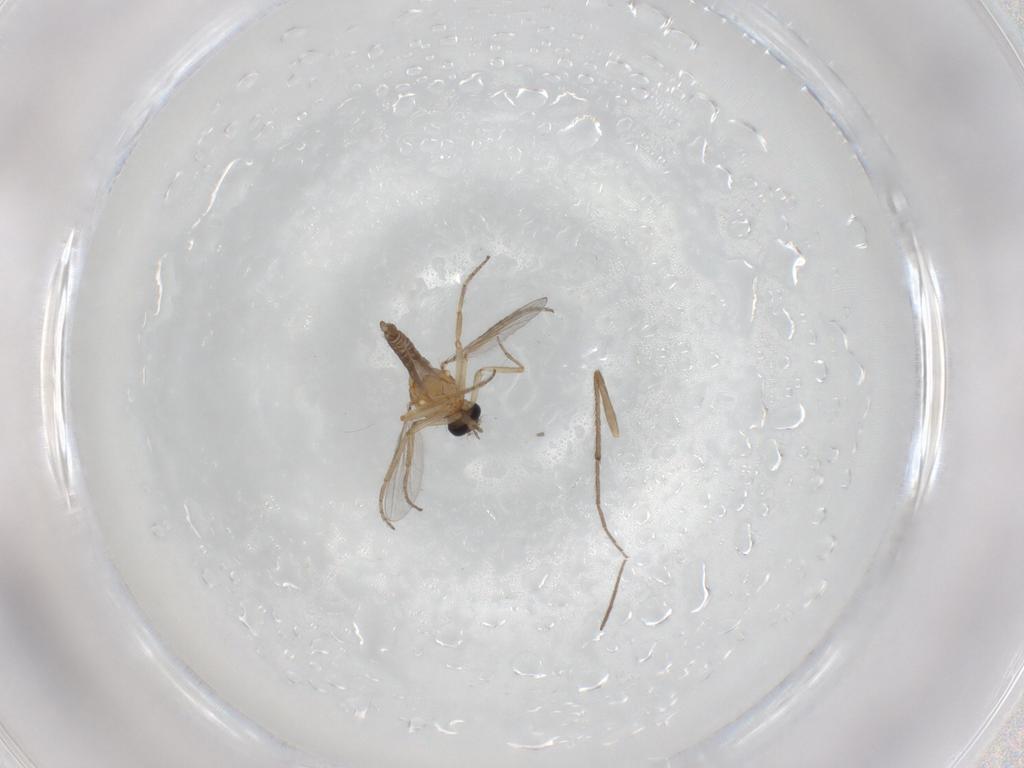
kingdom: Animalia
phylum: Arthropoda
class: Insecta
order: Diptera
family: Ceratopogonidae
